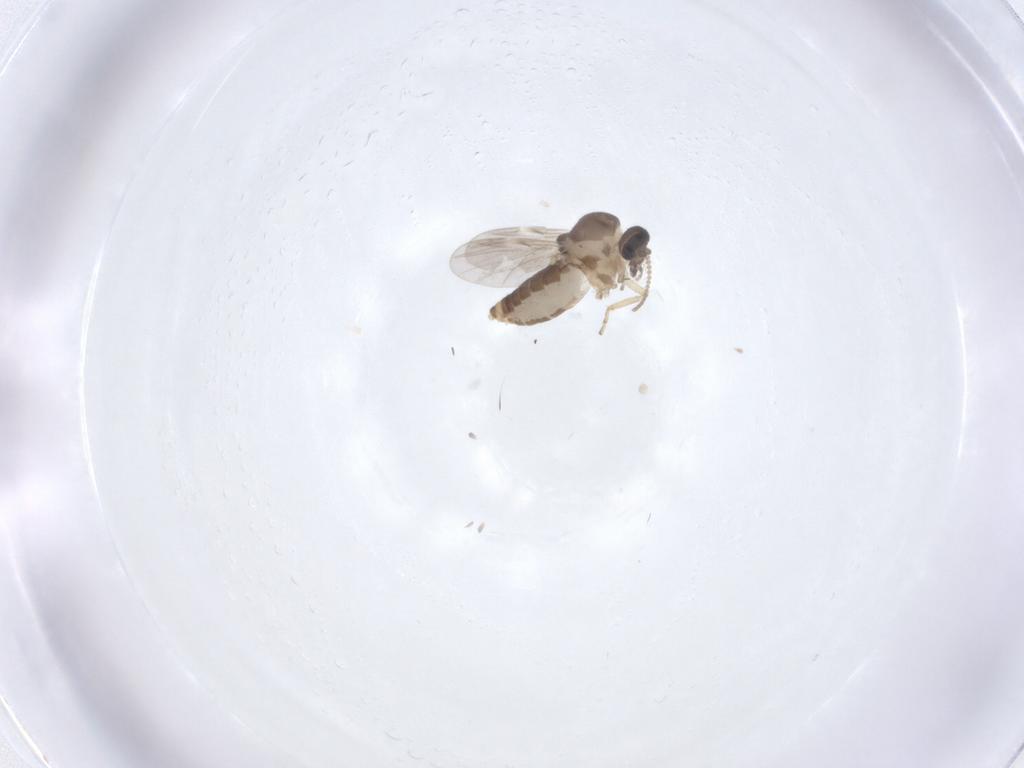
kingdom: Animalia
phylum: Arthropoda
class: Insecta
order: Diptera
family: Ceratopogonidae
